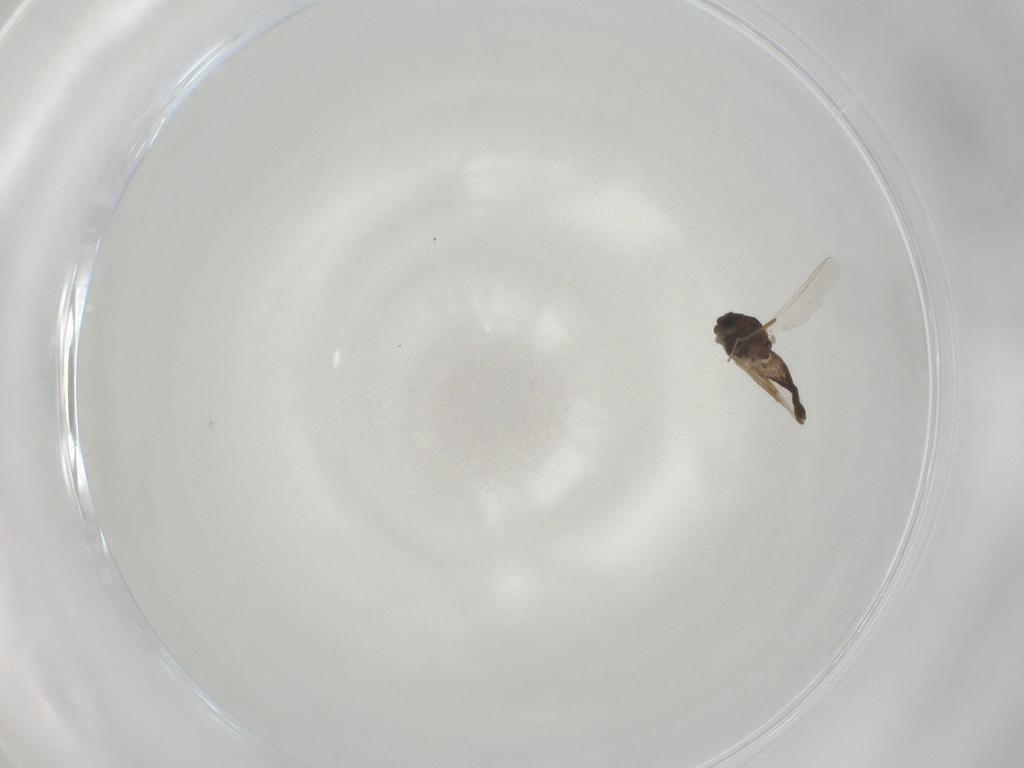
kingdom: Animalia
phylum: Arthropoda
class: Insecta
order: Diptera
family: Chironomidae
